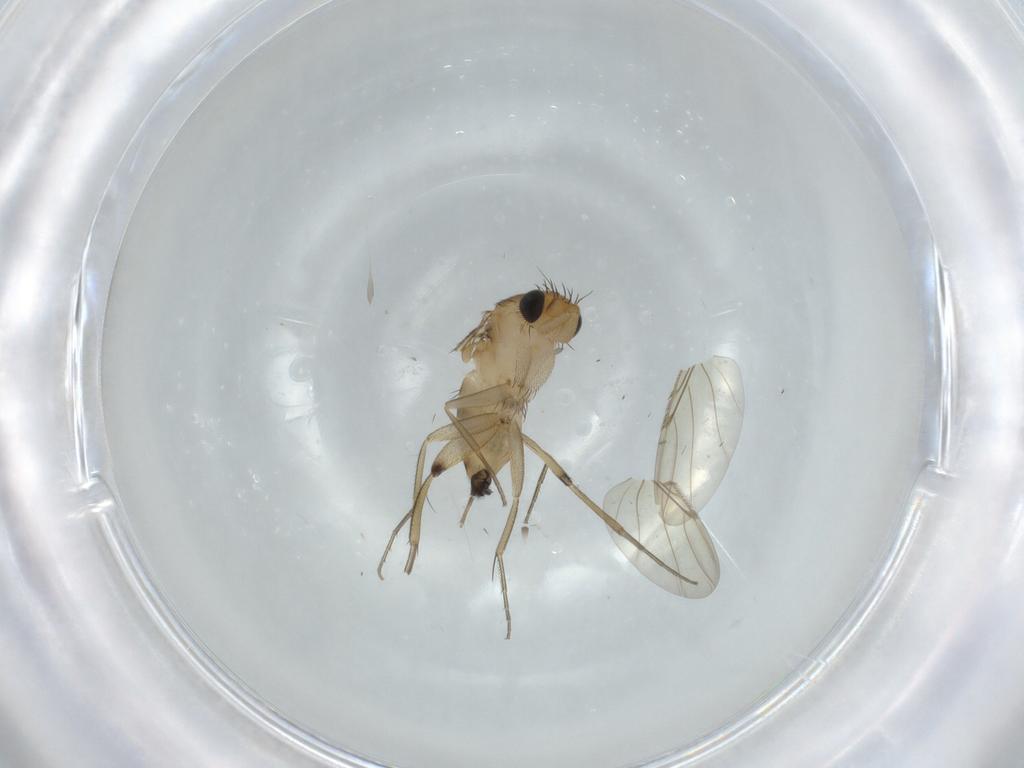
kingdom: Animalia
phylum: Arthropoda
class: Insecta
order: Diptera
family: Phoridae
